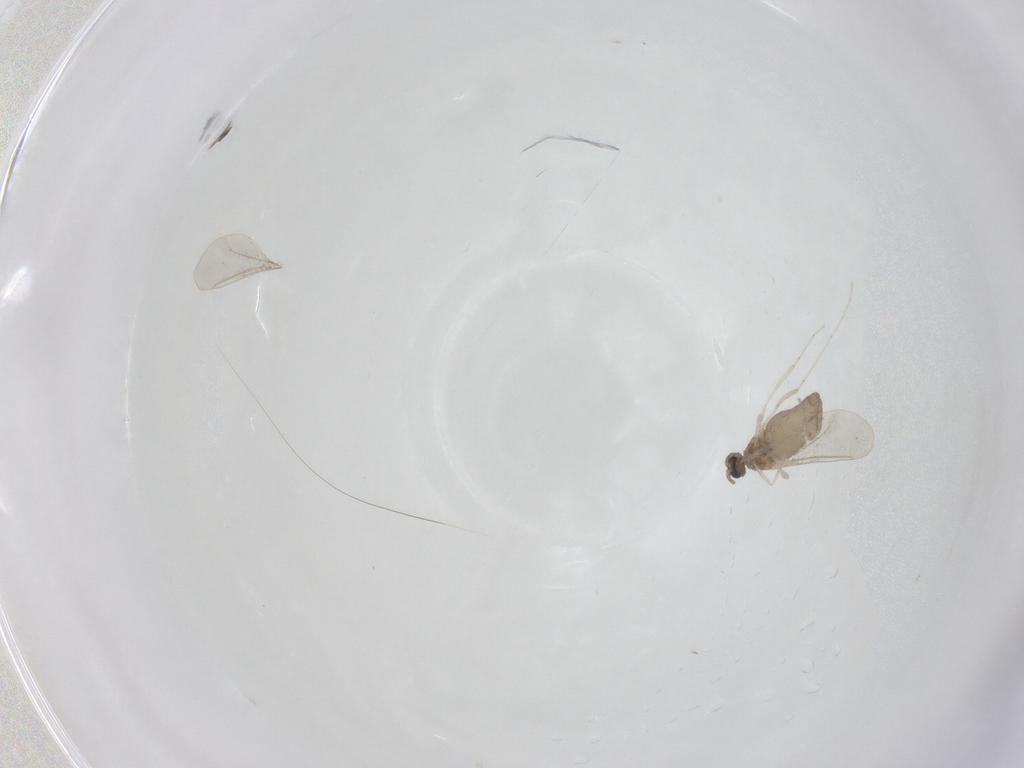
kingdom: Animalia
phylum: Arthropoda
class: Insecta
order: Diptera
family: Cecidomyiidae
